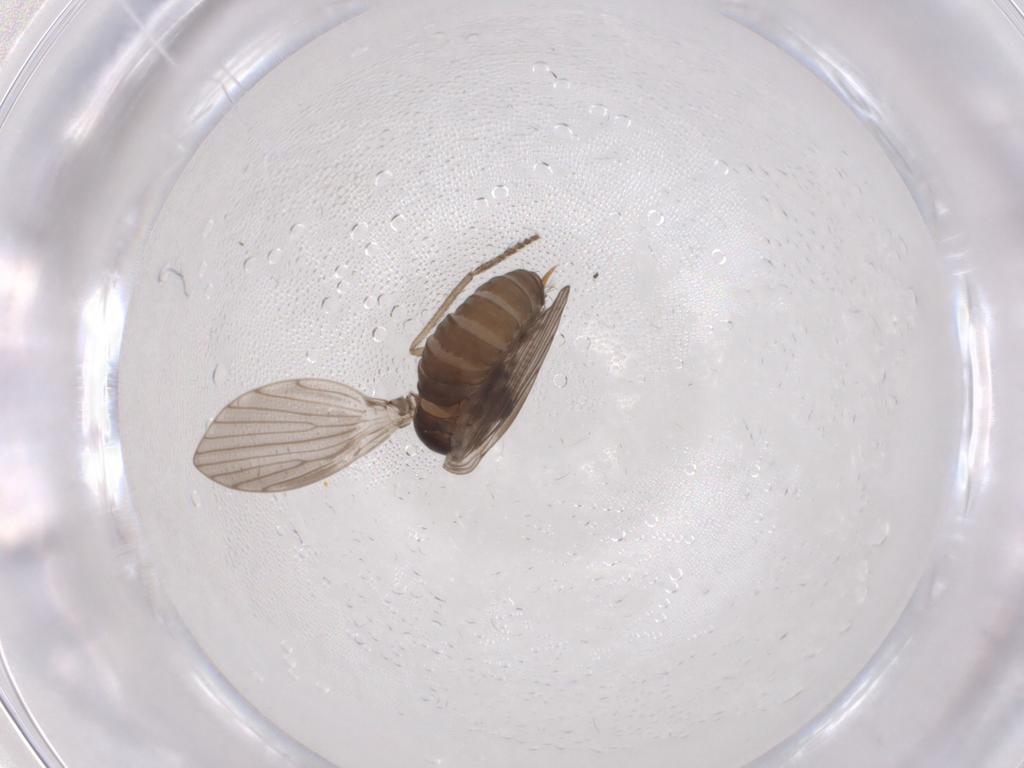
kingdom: Animalia
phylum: Arthropoda
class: Insecta
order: Diptera
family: Psychodidae
